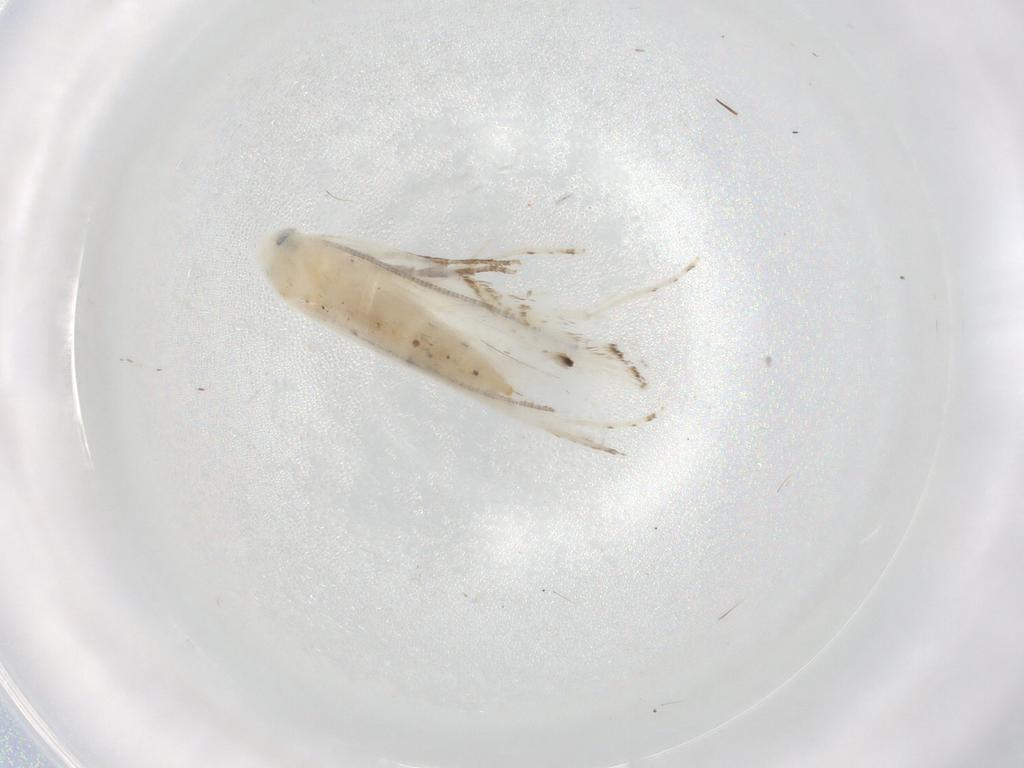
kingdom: Animalia
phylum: Arthropoda
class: Insecta
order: Lepidoptera
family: Lyonetiidae
